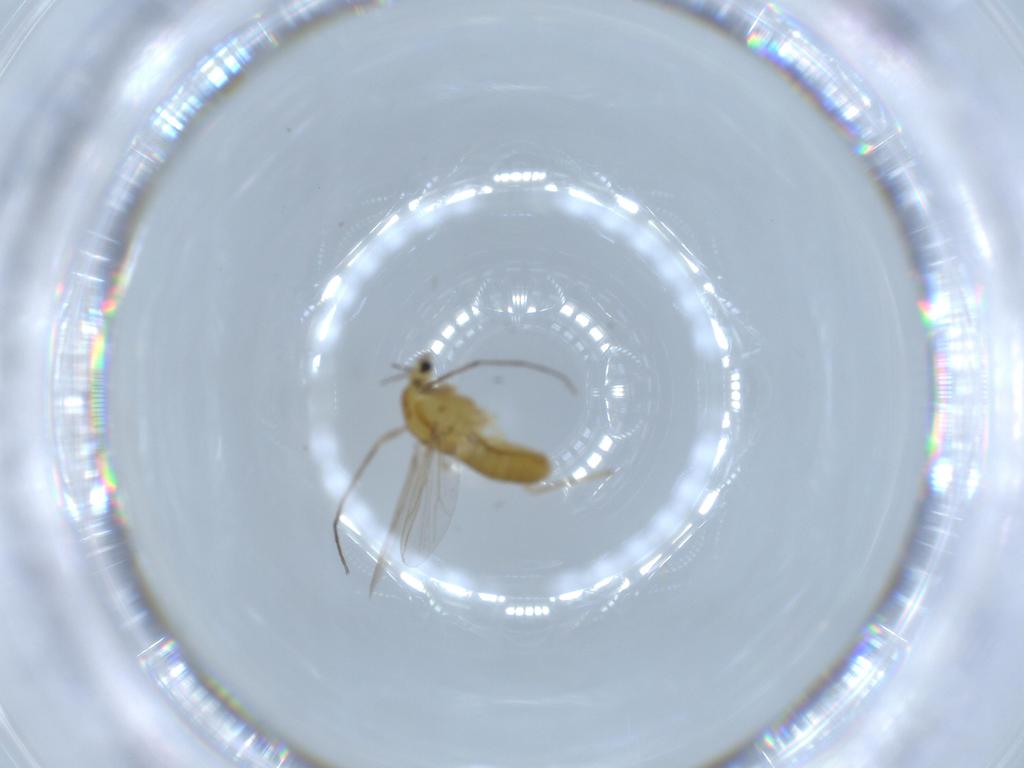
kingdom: Animalia
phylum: Arthropoda
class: Insecta
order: Diptera
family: Chironomidae
